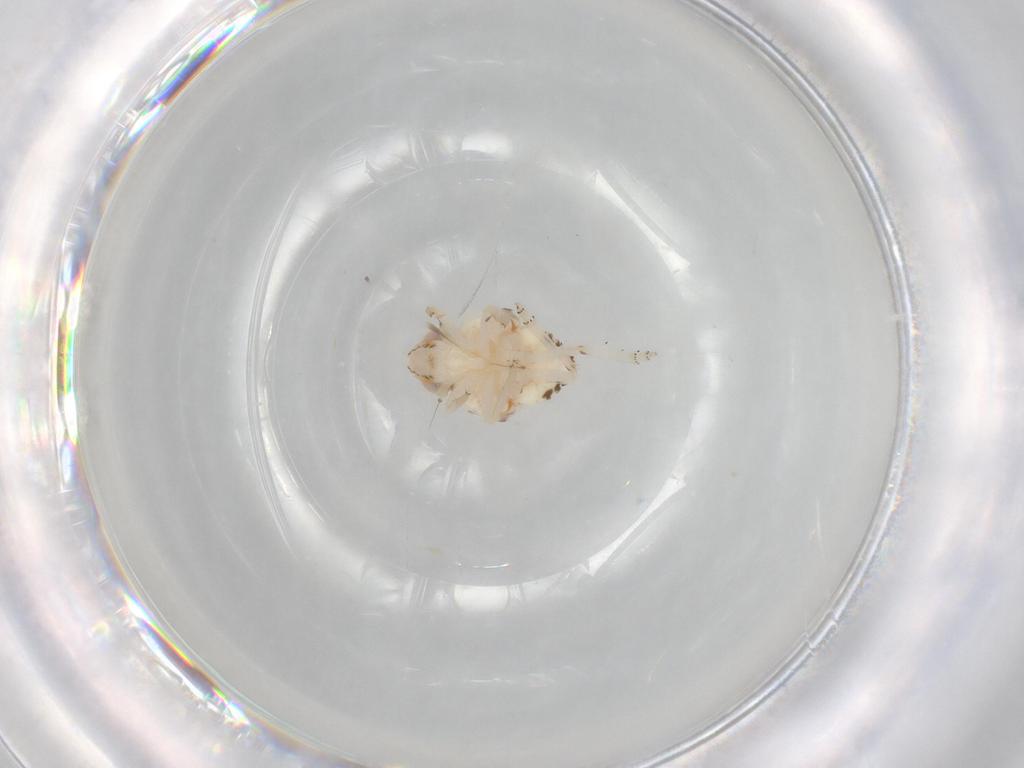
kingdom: Animalia
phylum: Arthropoda
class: Insecta
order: Hemiptera
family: Nogodinidae
